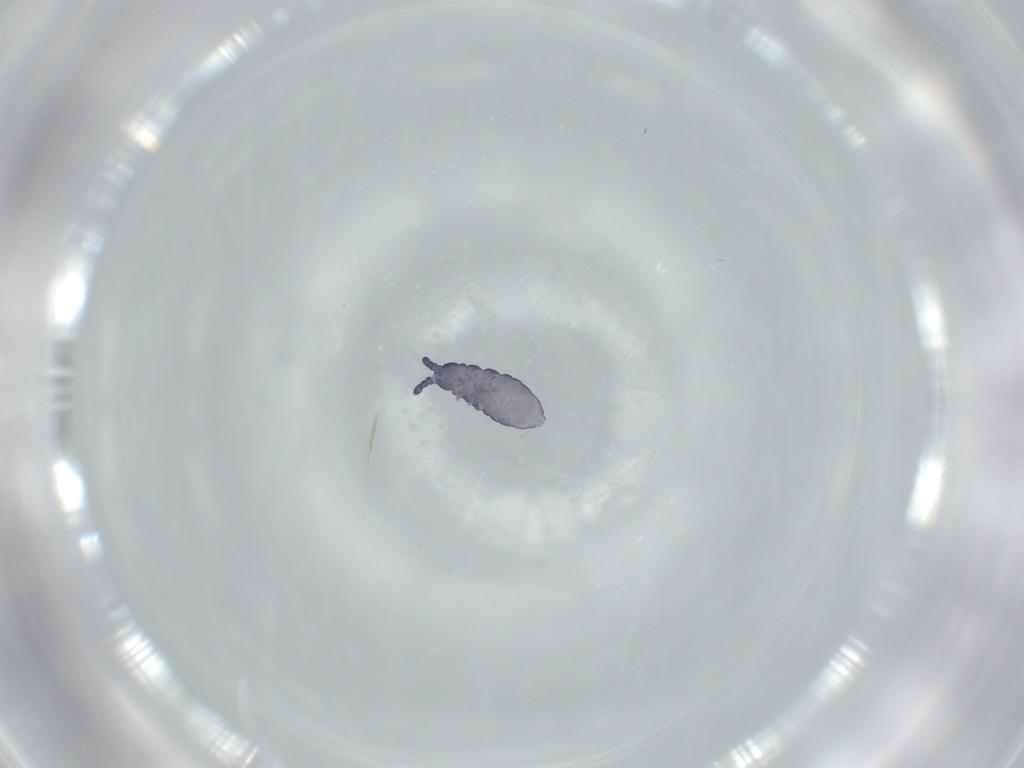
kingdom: Animalia
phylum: Arthropoda
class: Collembola
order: Poduromorpha
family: Neanuridae
